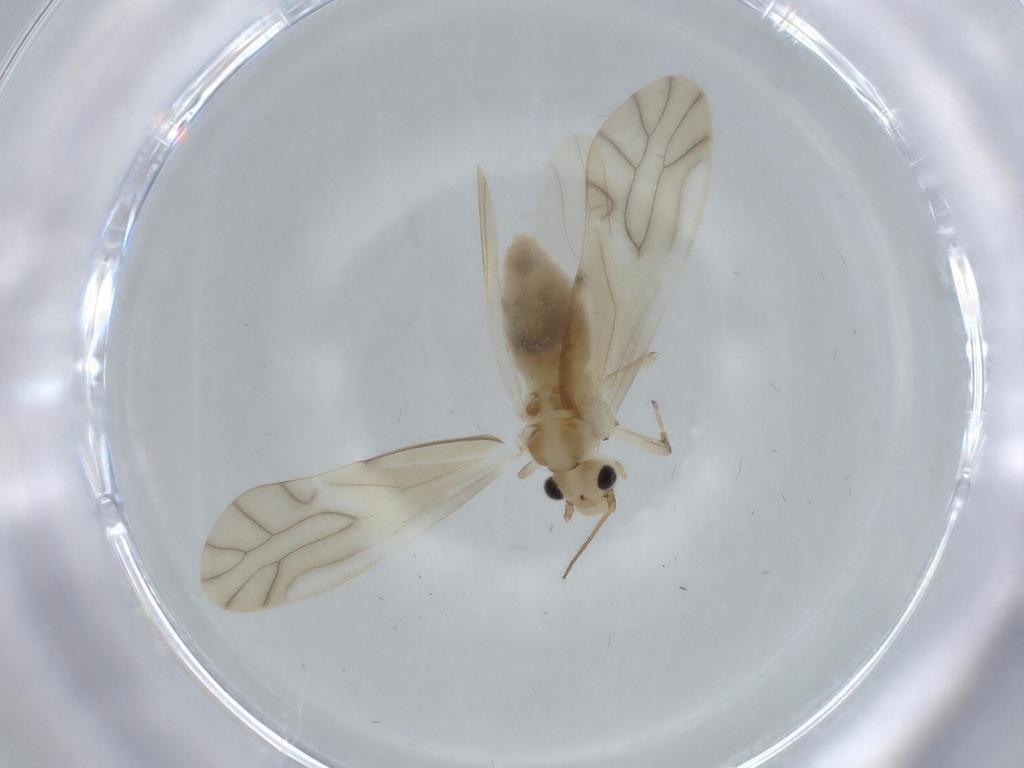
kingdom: Animalia
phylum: Arthropoda
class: Insecta
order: Psocodea
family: Caeciliusidae
